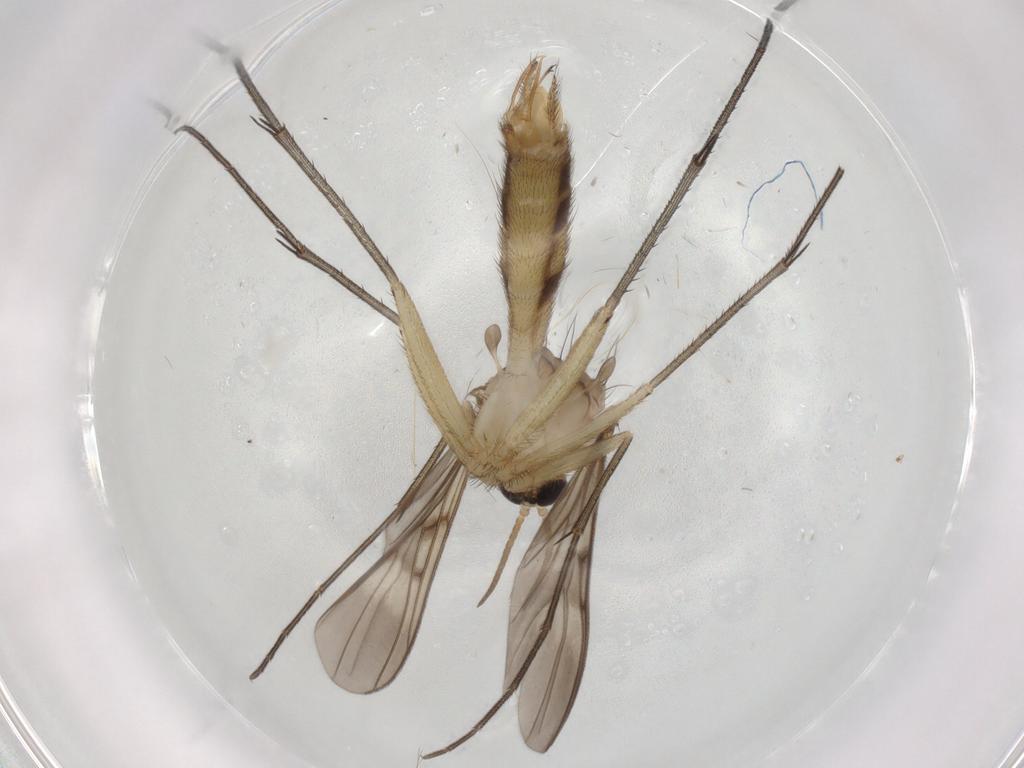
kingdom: Animalia
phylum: Arthropoda
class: Insecta
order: Diptera
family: Mycetophilidae
